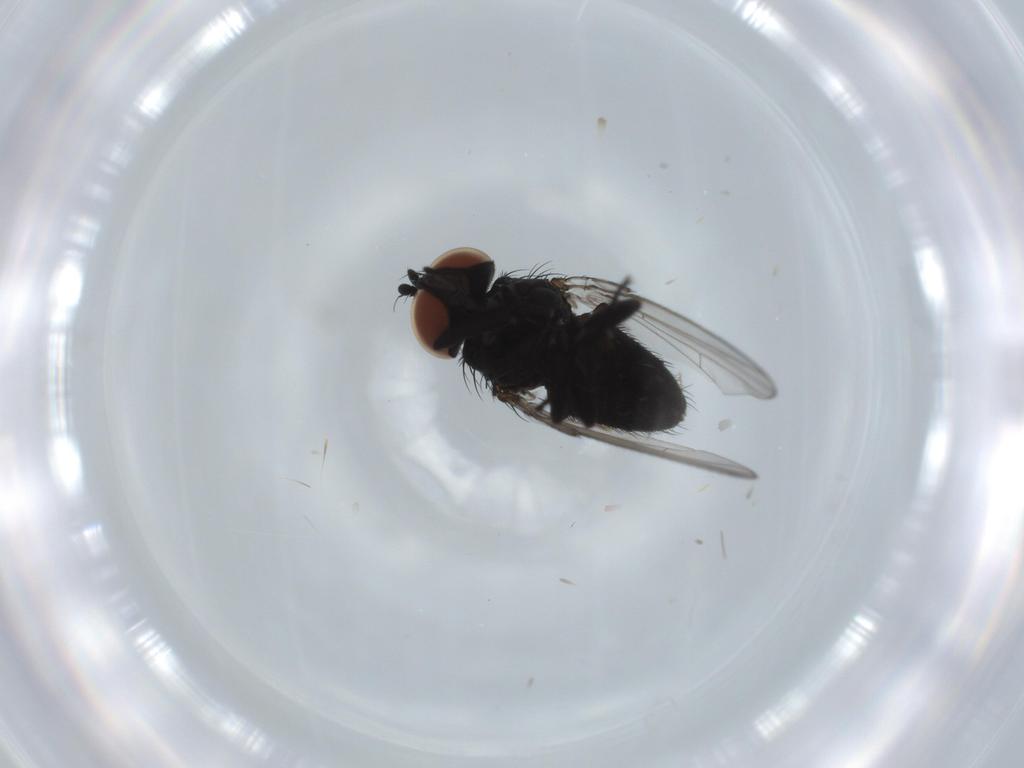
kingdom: Animalia
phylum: Arthropoda
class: Insecta
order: Diptera
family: Milichiidae
